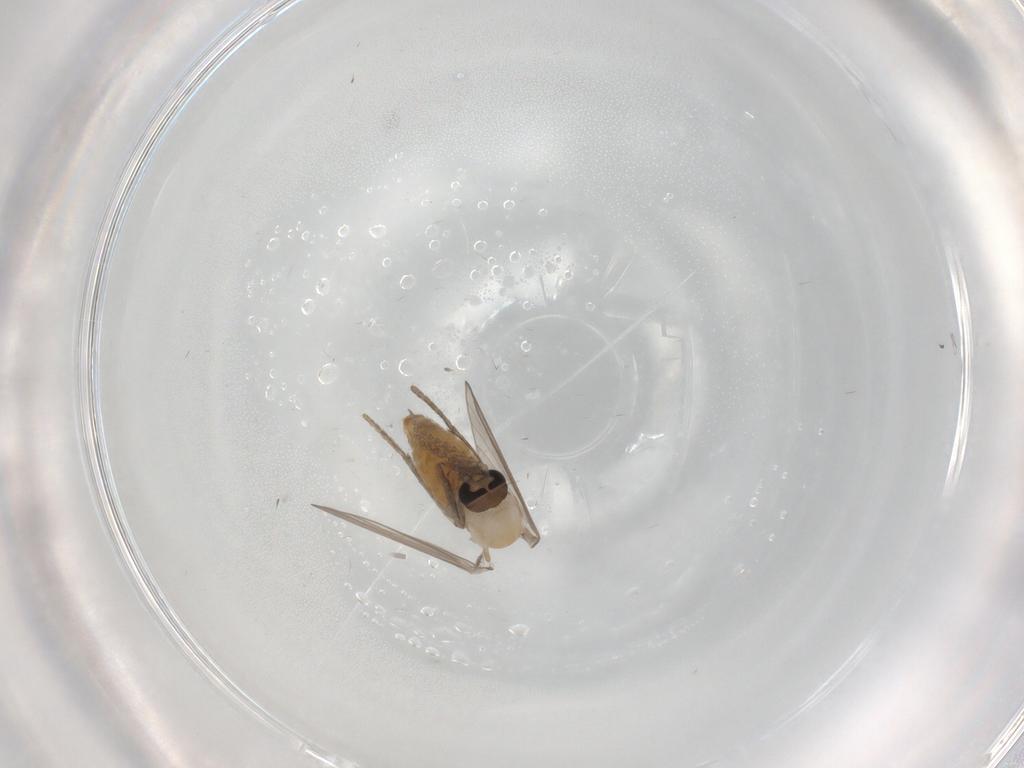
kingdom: Animalia
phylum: Arthropoda
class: Insecta
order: Diptera
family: Psychodidae
